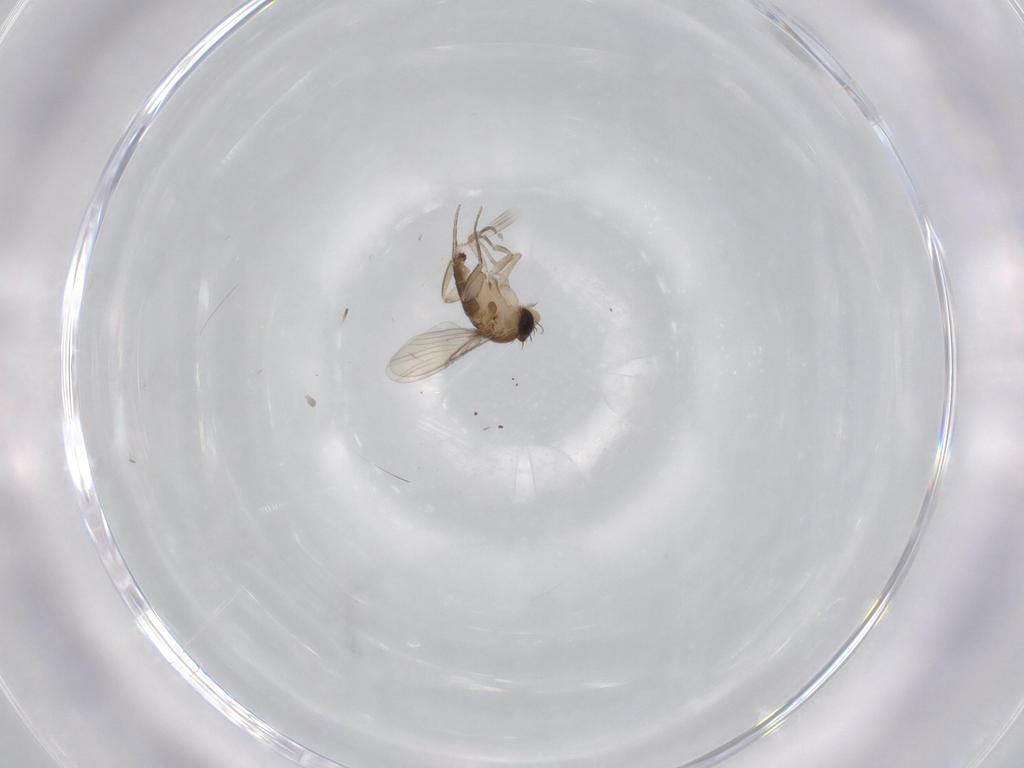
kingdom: Animalia
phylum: Arthropoda
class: Insecta
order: Diptera
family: Phoridae
